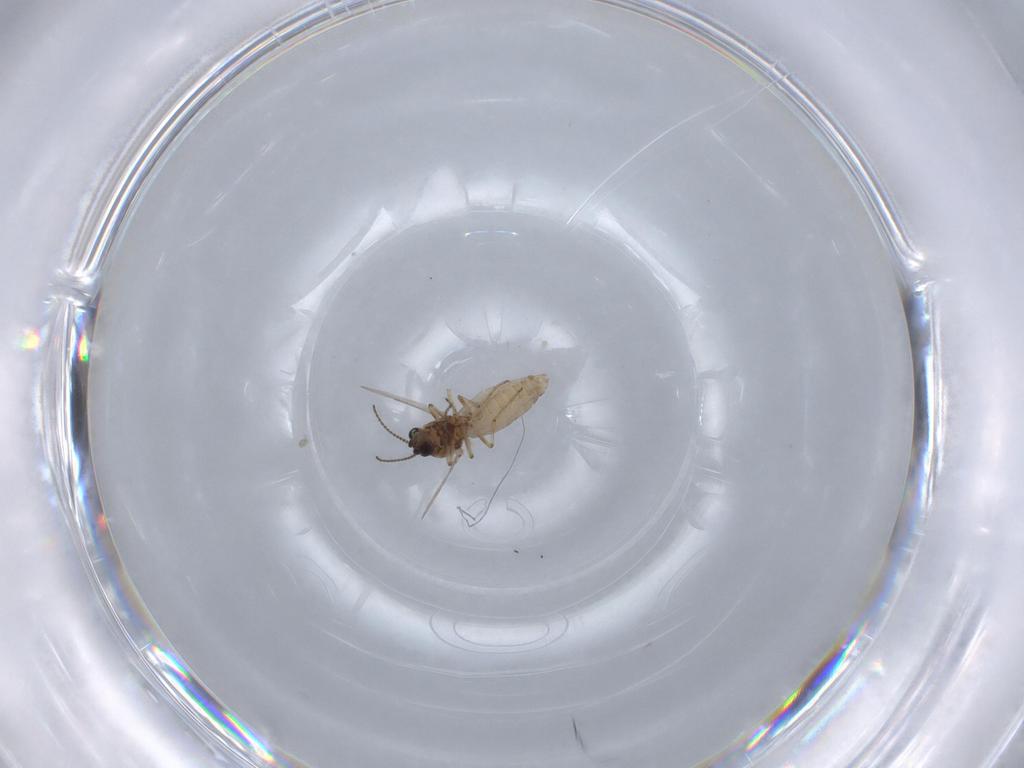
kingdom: Animalia
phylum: Arthropoda
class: Insecta
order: Diptera
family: Ceratopogonidae
